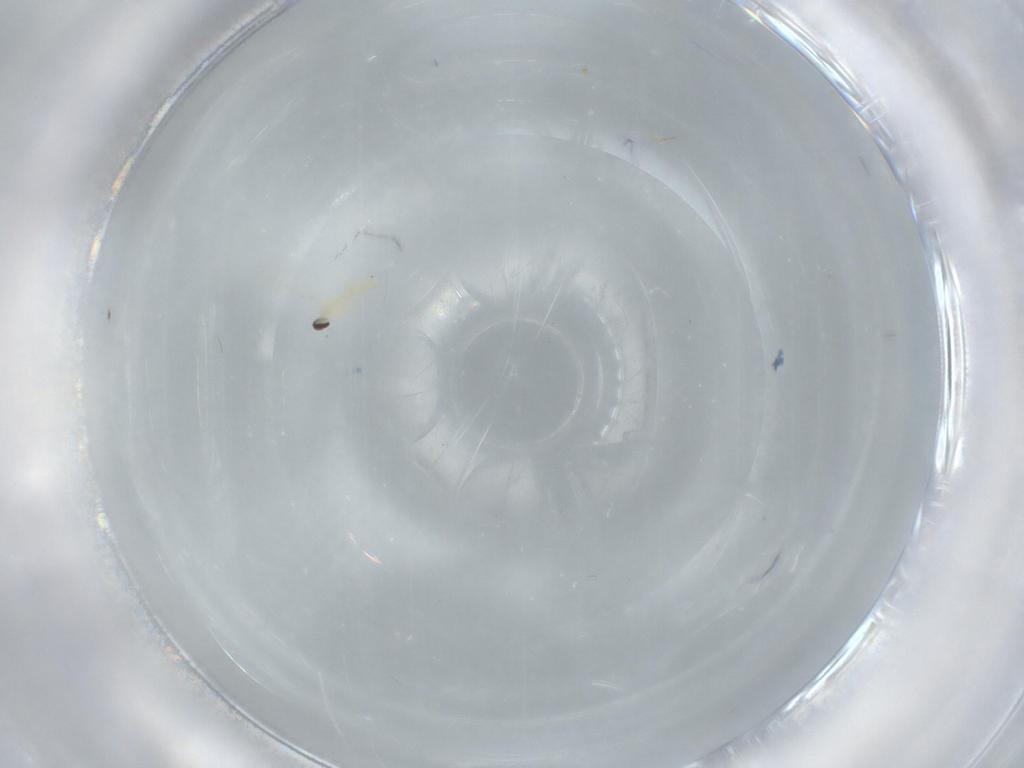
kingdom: Animalia
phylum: Arthropoda
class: Insecta
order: Diptera
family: Cecidomyiidae
